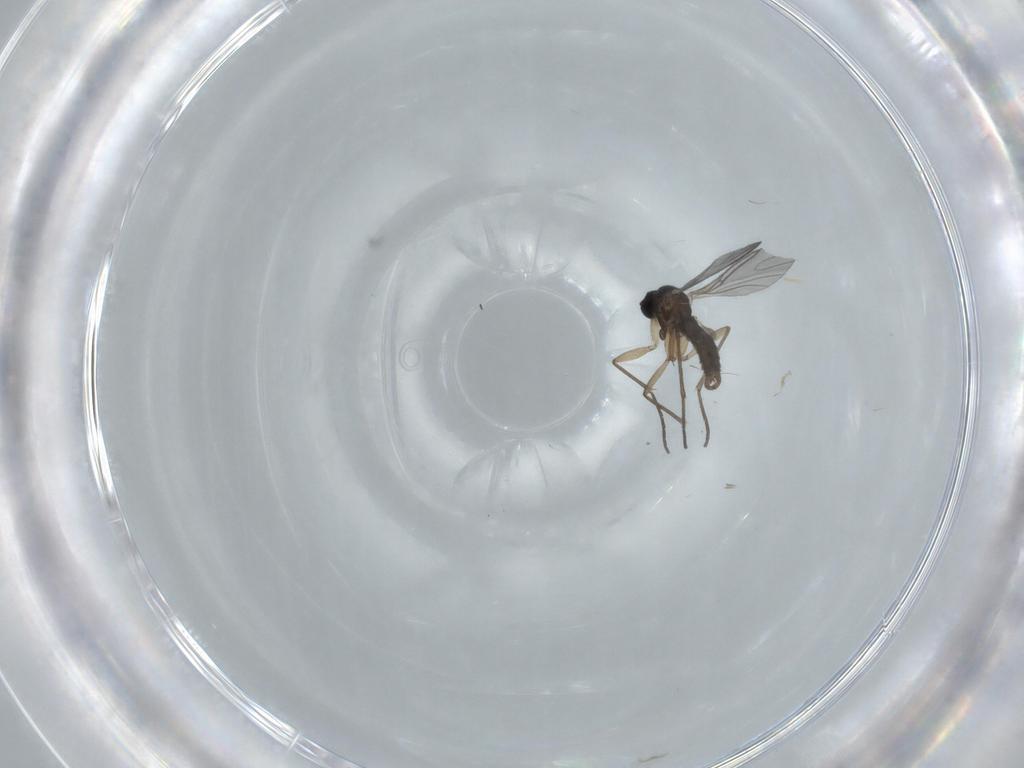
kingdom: Animalia
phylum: Arthropoda
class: Insecta
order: Diptera
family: Sciaridae
